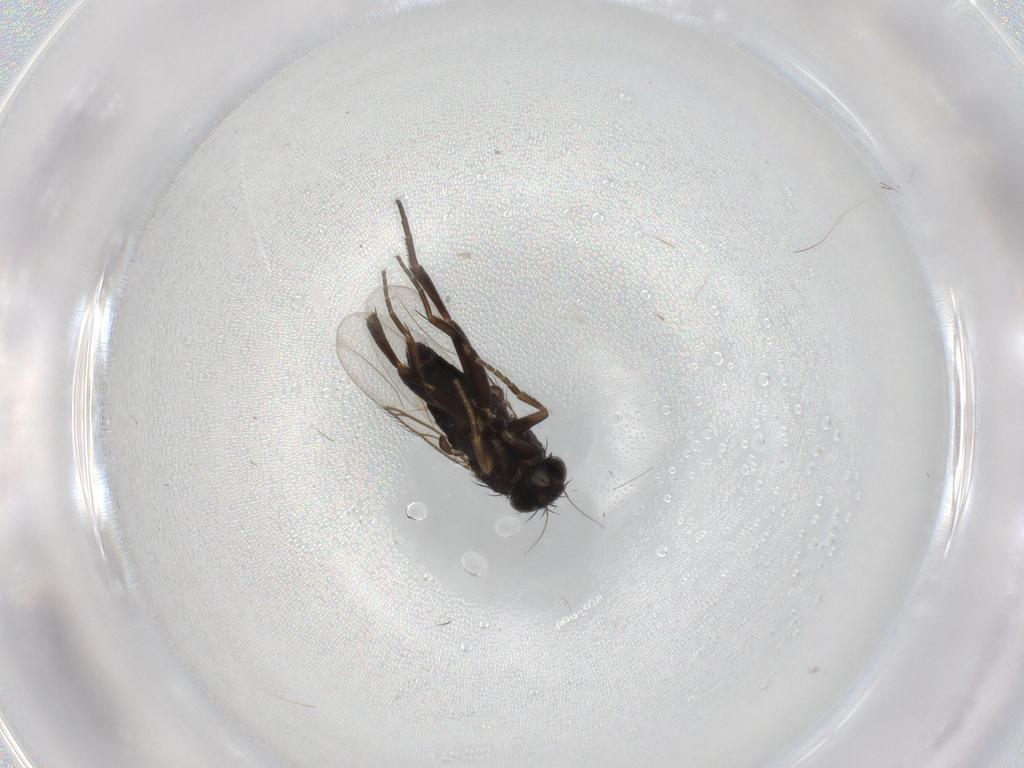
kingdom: Animalia
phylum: Arthropoda
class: Insecta
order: Diptera
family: Phoridae
